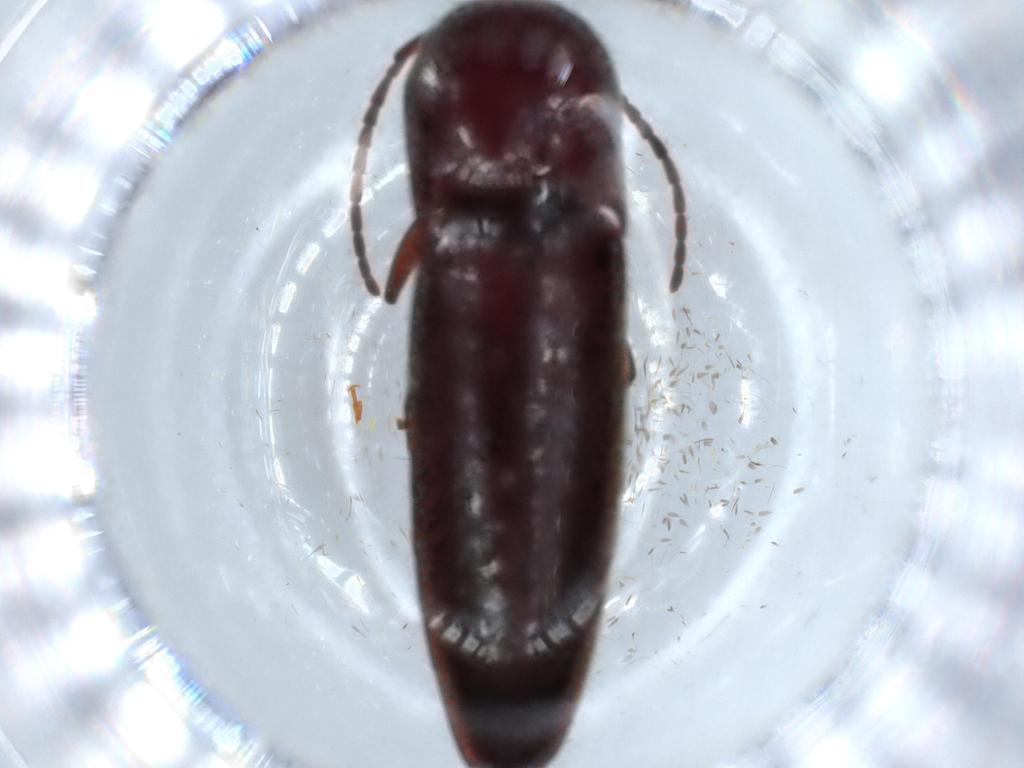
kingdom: Animalia
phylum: Arthropoda
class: Insecta
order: Coleoptera
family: Eucnemidae
